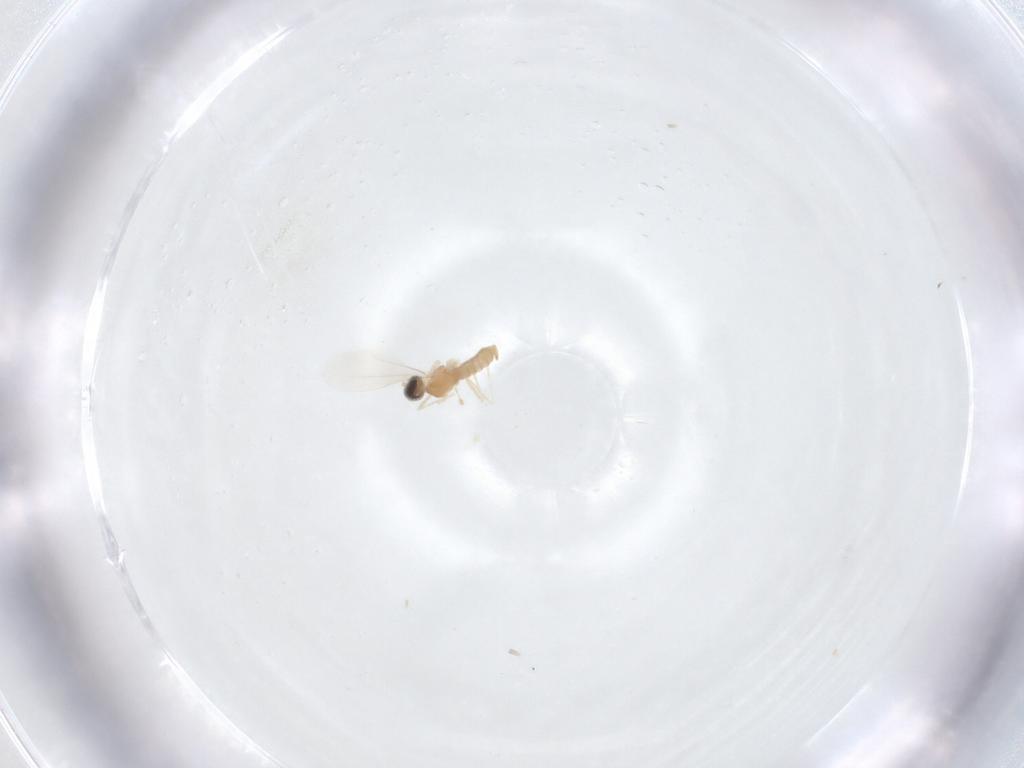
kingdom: Animalia
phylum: Arthropoda
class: Insecta
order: Diptera
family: Cecidomyiidae
